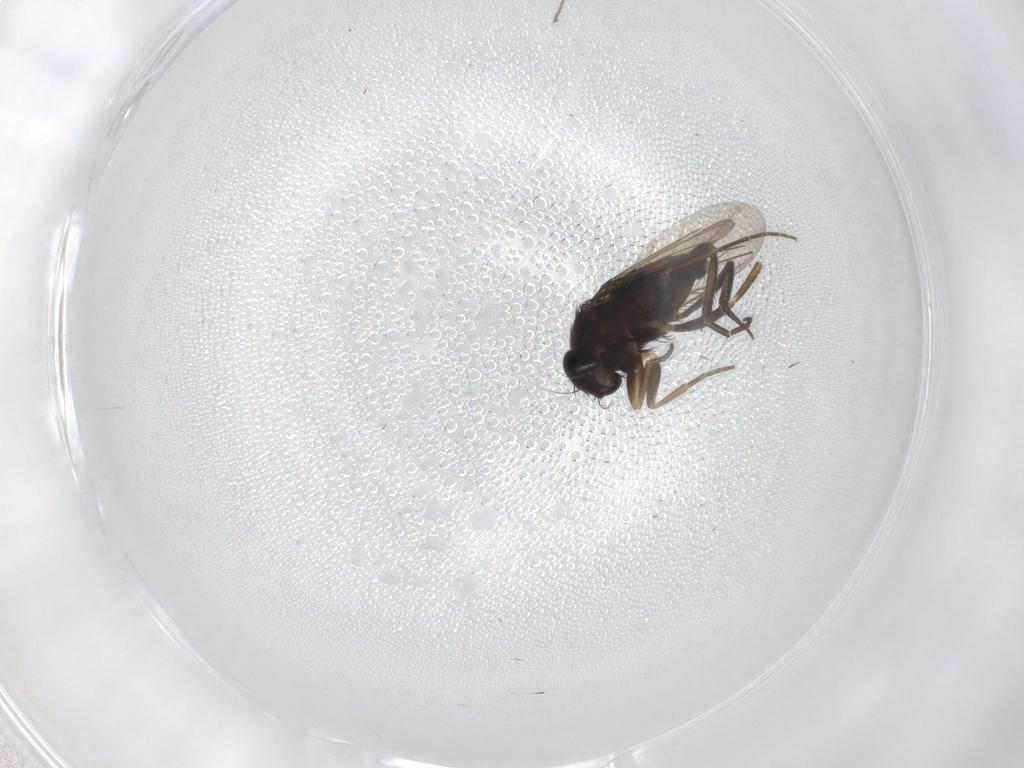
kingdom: Animalia
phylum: Arthropoda
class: Insecta
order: Diptera
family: Phoridae
